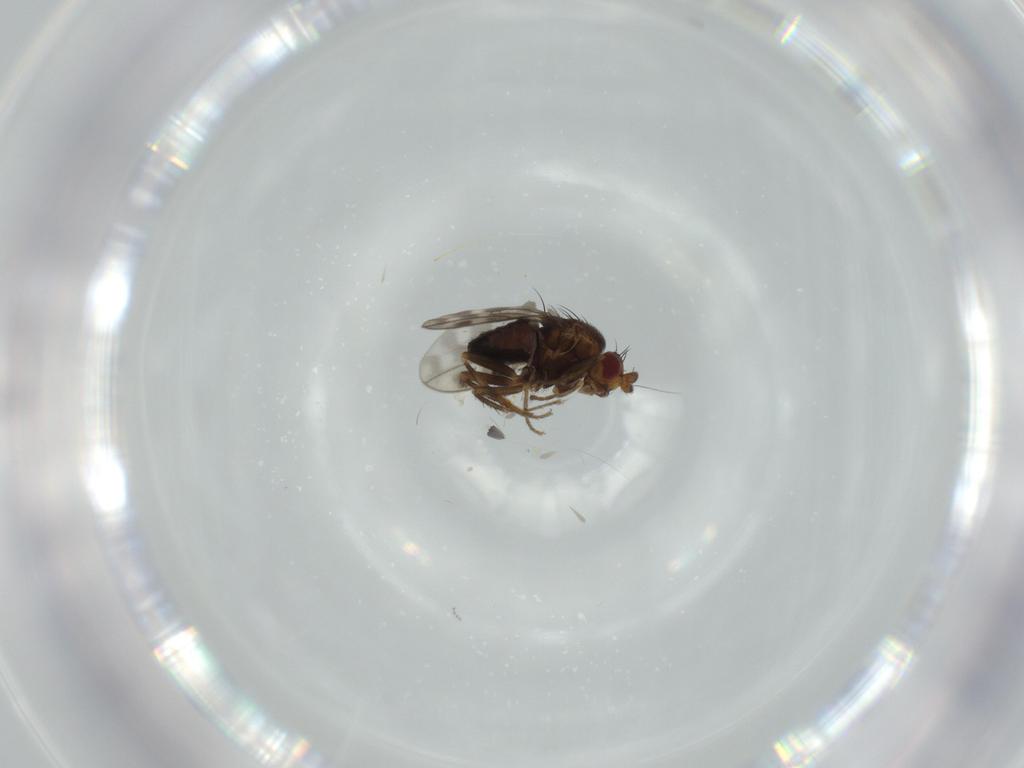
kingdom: Animalia
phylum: Arthropoda
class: Insecta
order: Diptera
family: Sphaeroceridae
